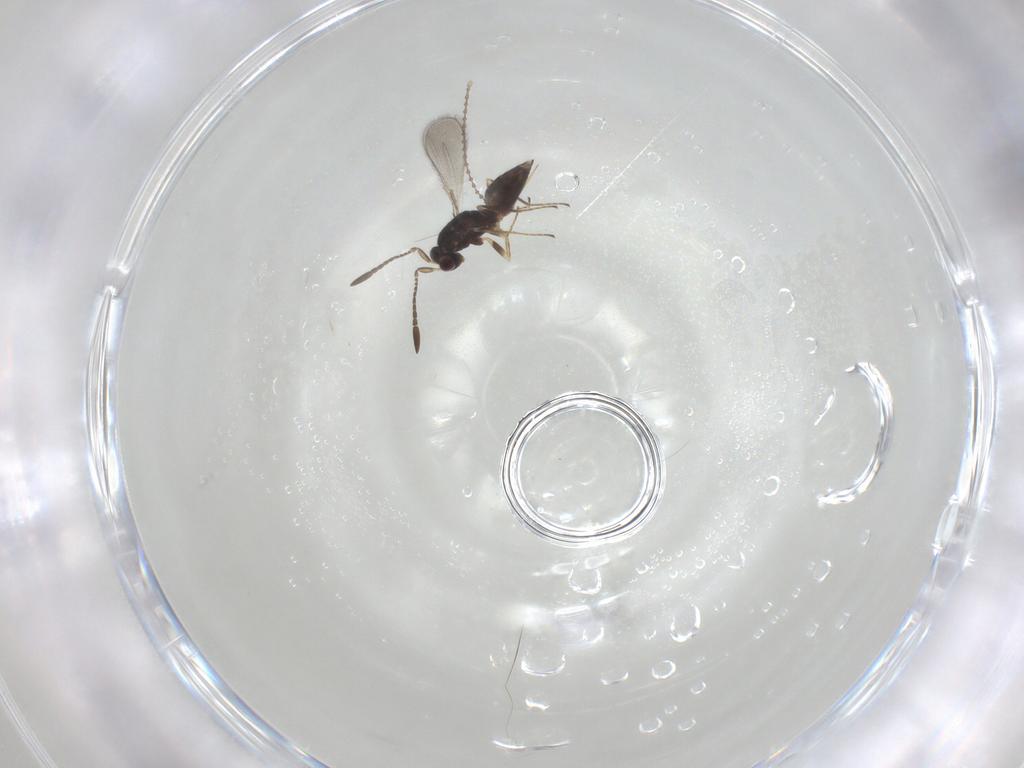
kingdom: Animalia
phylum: Arthropoda
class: Insecta
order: Hymenoptera
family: Mymaridae
